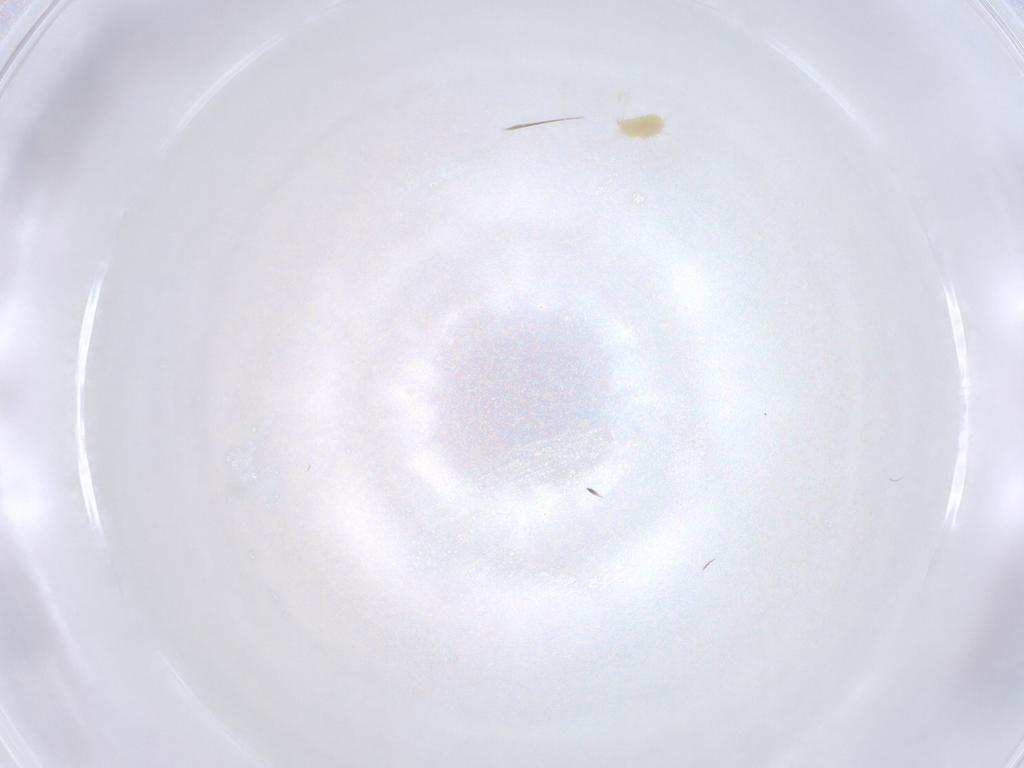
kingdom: Animalia
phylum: Arthropoda
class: Arachnida
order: Trombidiformes
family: Tetranychidae
